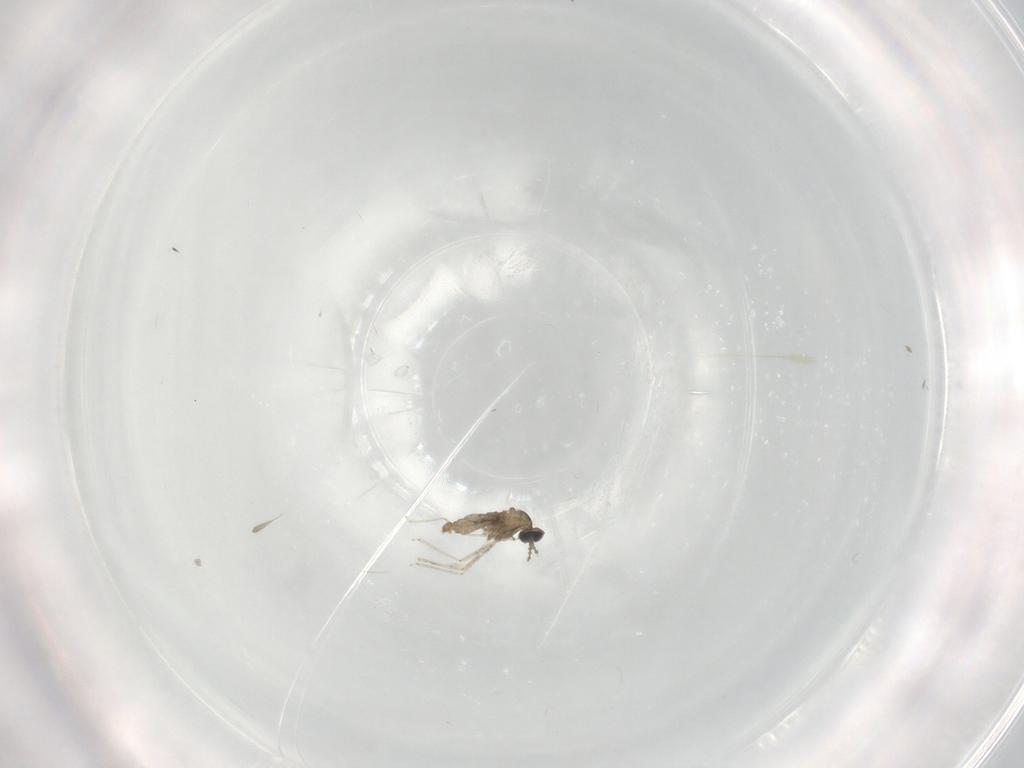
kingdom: Animalia
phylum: Arthropoda
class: Insecta
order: Diptera
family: Cecidomyiidae
